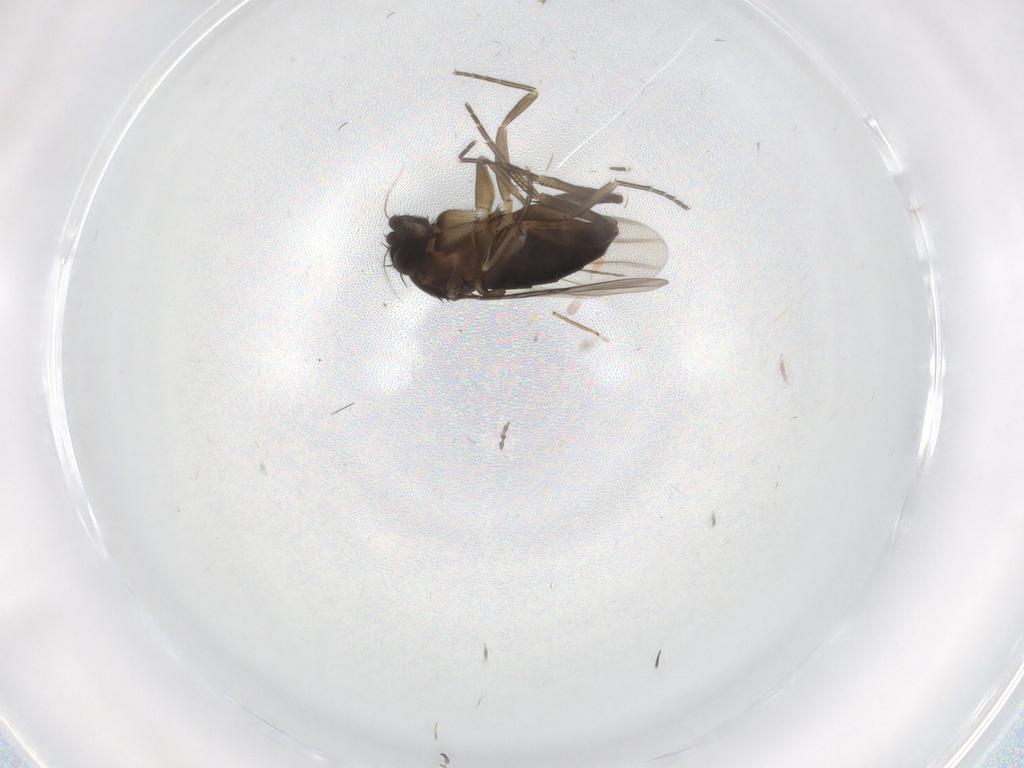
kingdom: Animalia
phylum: Arthropoda
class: Insecta
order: Diptera
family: Phoridae
